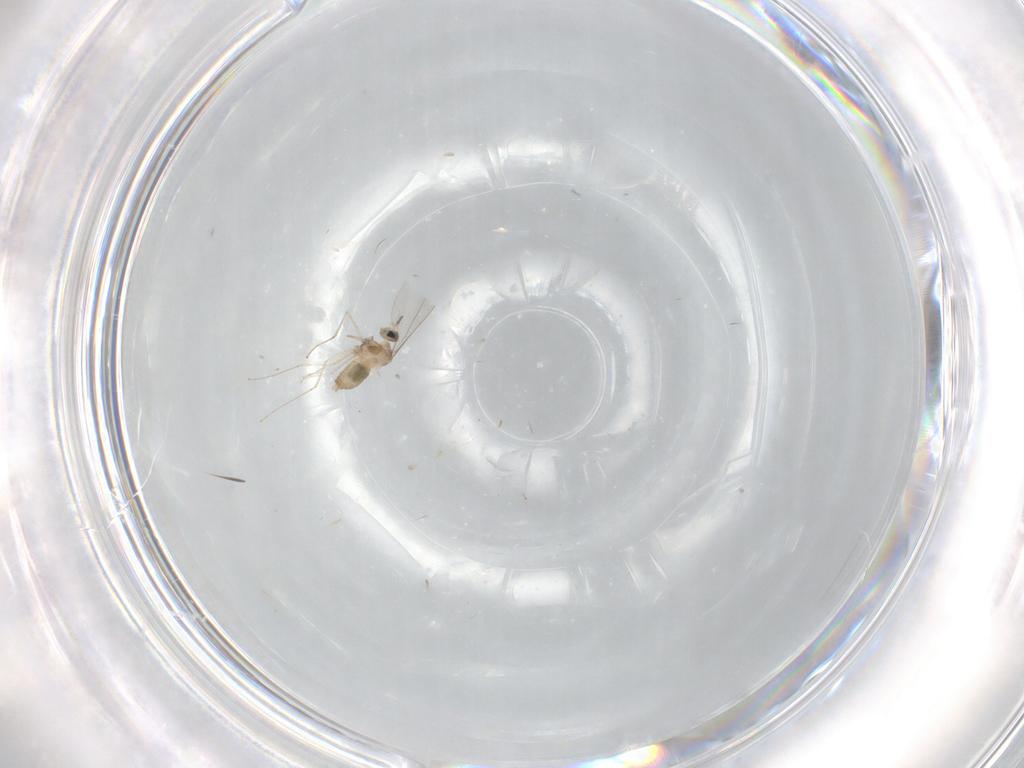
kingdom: Animalia
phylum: Arthropoda
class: Insecta
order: Diptera
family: Cecidomyiidae
